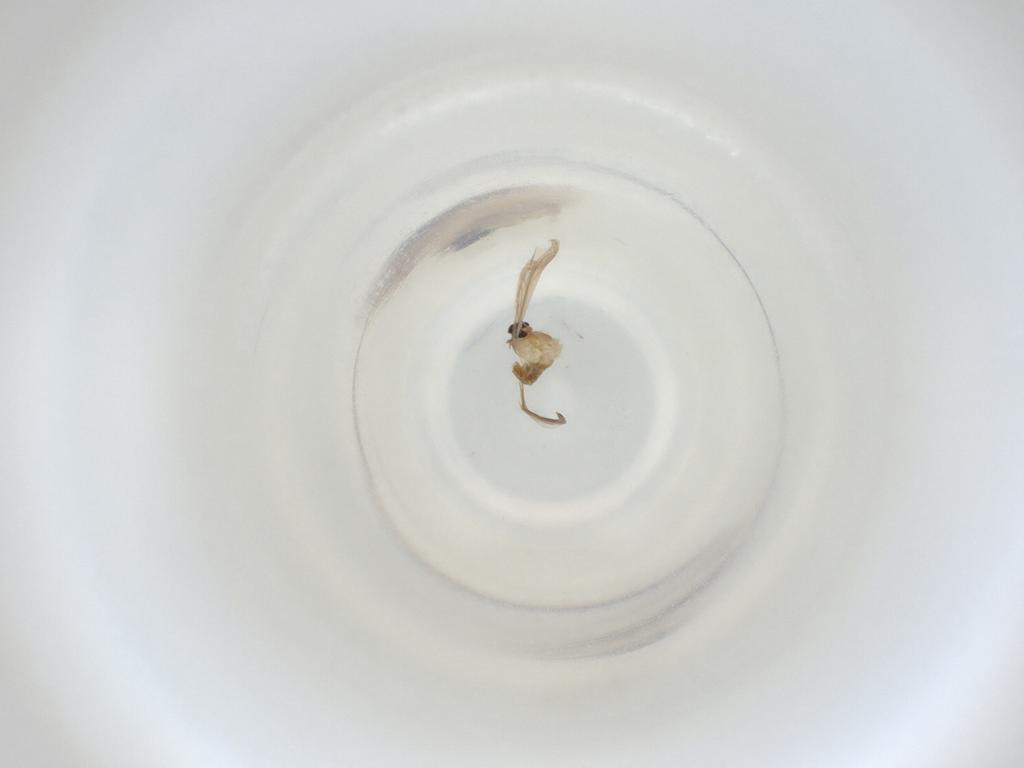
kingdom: Animalia
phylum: Arthropoda
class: Insecta
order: Diptera
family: Cecidomyiidae
